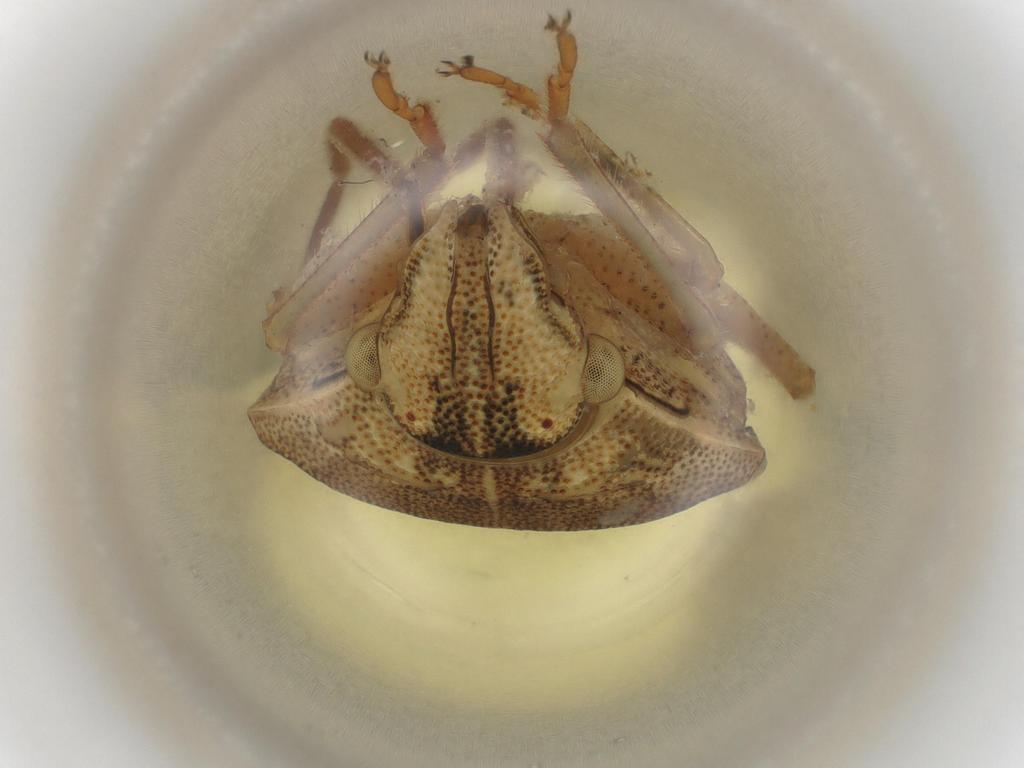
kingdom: Animalia
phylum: Arthropoda
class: Insecta
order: Hemiptera
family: Pentatomidae
